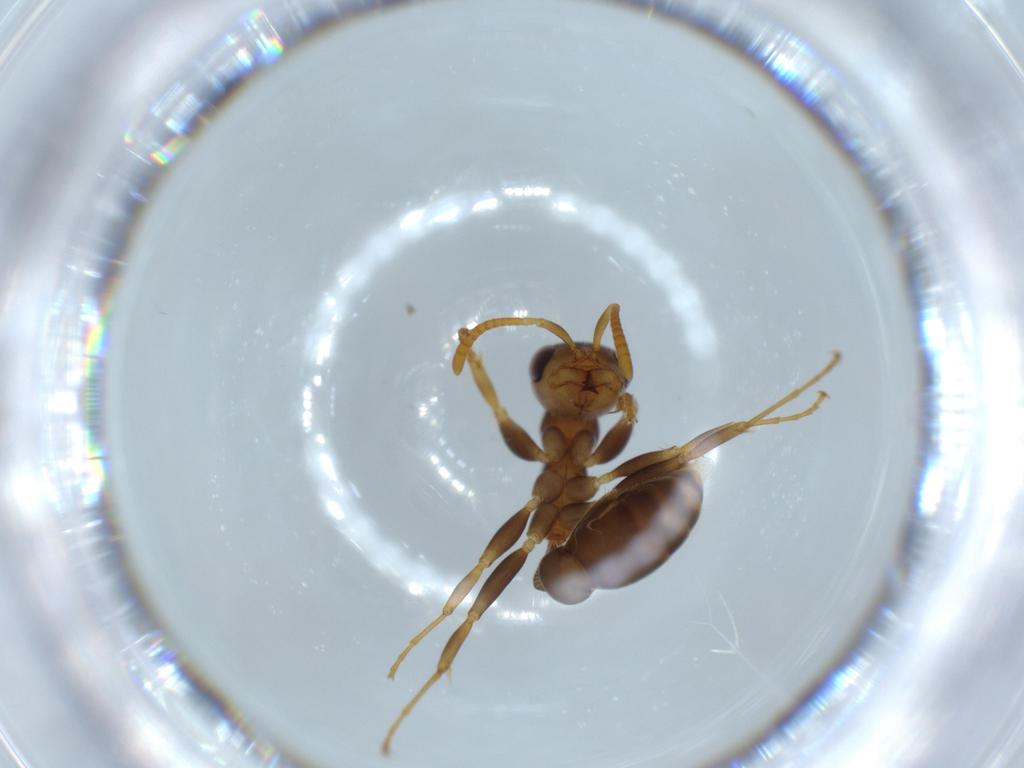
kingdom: Animalia
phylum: Arthropoda
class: Insecta
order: Hymenoptera
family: Formicidae
